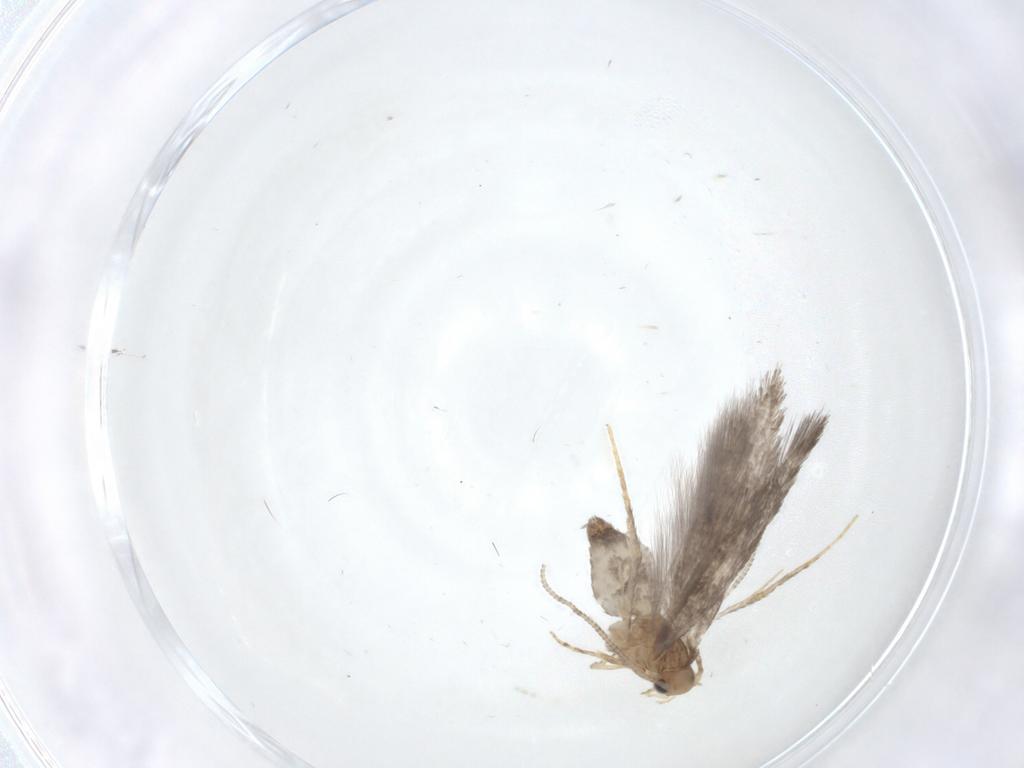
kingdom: Animalia
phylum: Arthropoda
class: Insecta
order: Lepidoptera
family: Tineidae
